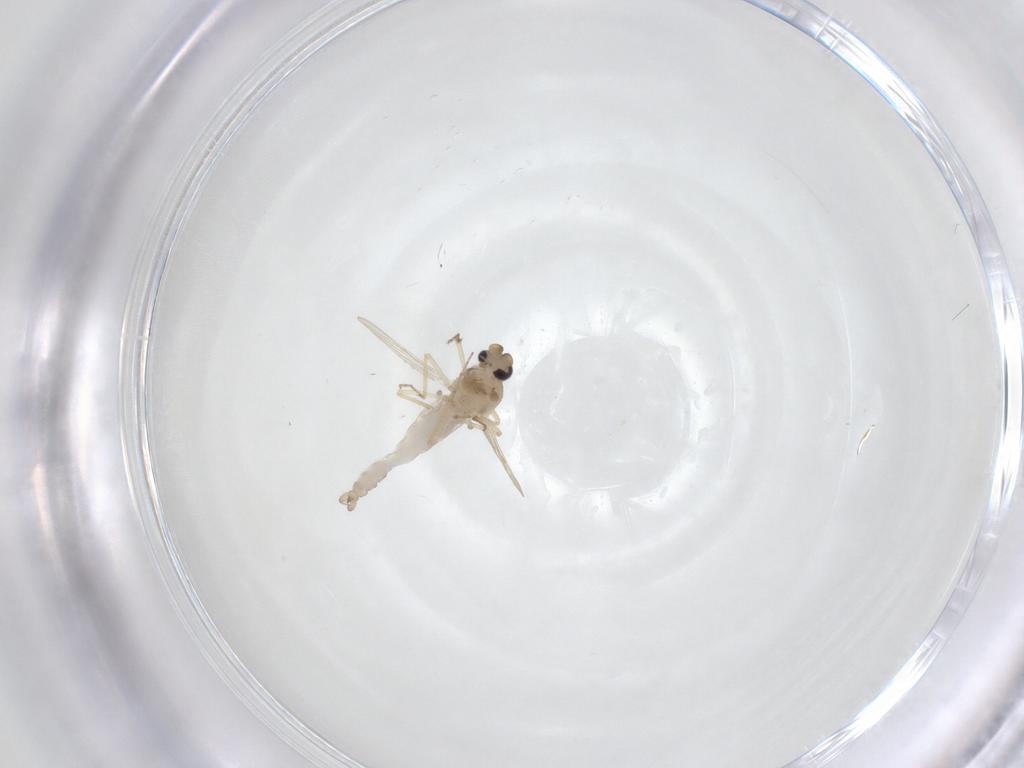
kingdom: Animalia
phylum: Arthropoda
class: Insecta
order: Diptera
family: Ceratopogonidae
